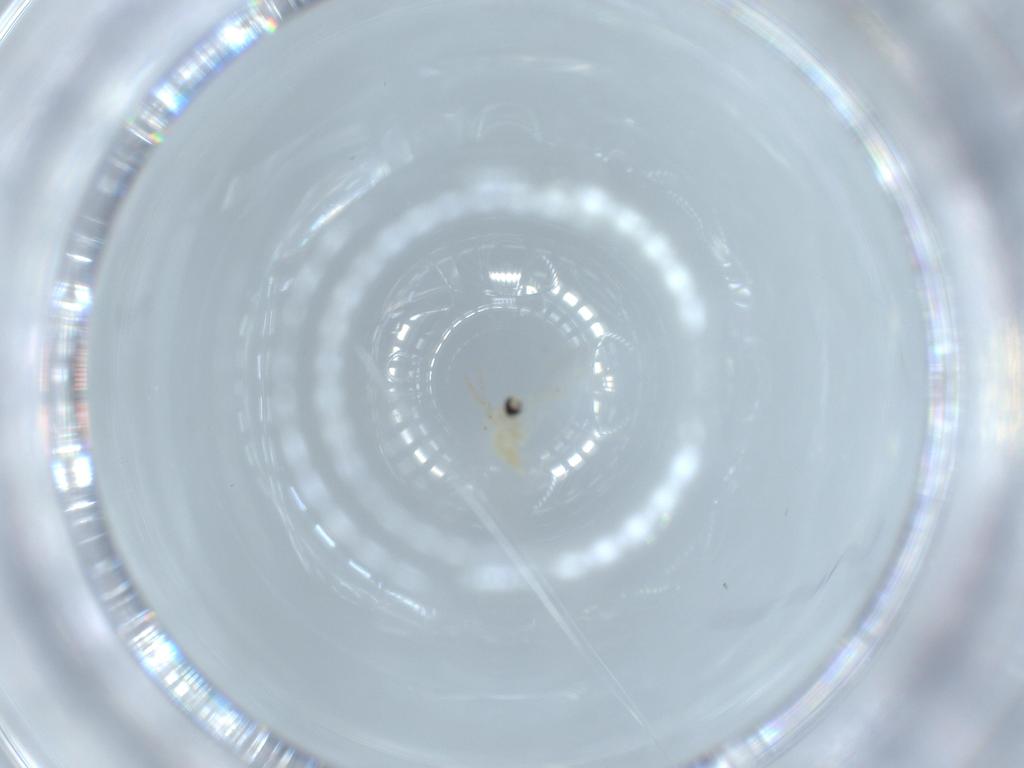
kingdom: Animalia
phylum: Arthropoda
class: Insecta
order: Diptera
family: Cecidomyiidae
